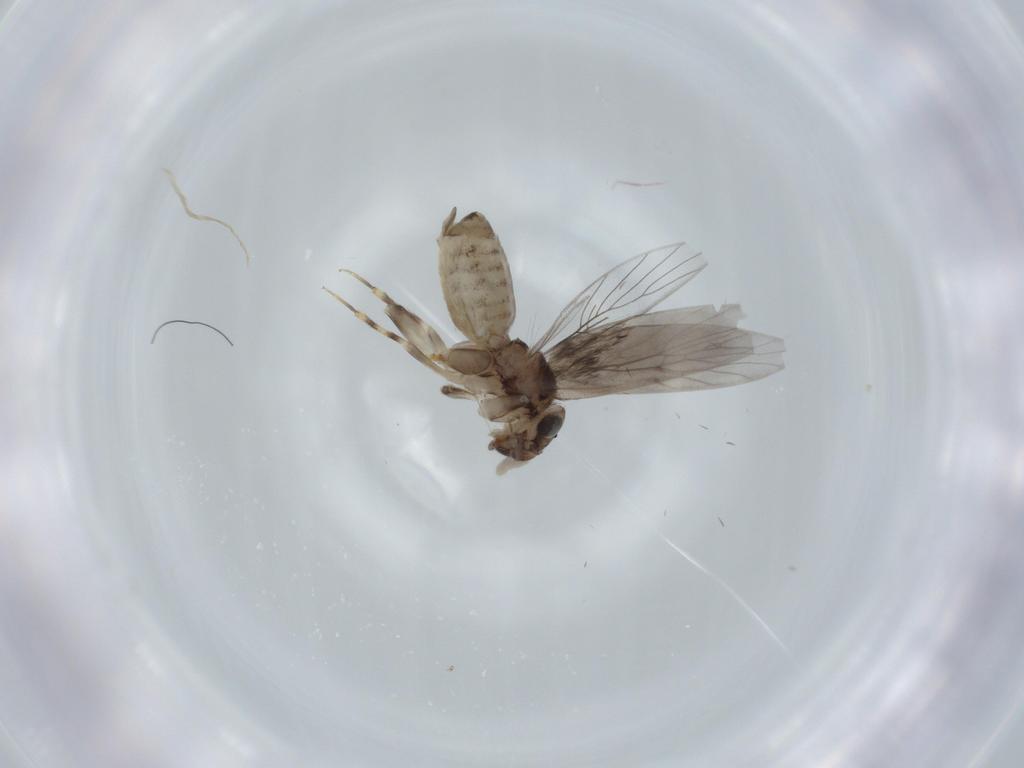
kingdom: Animalia
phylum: Arthropoda
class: Insecta
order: Psocodea
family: Lepidopsocidae
